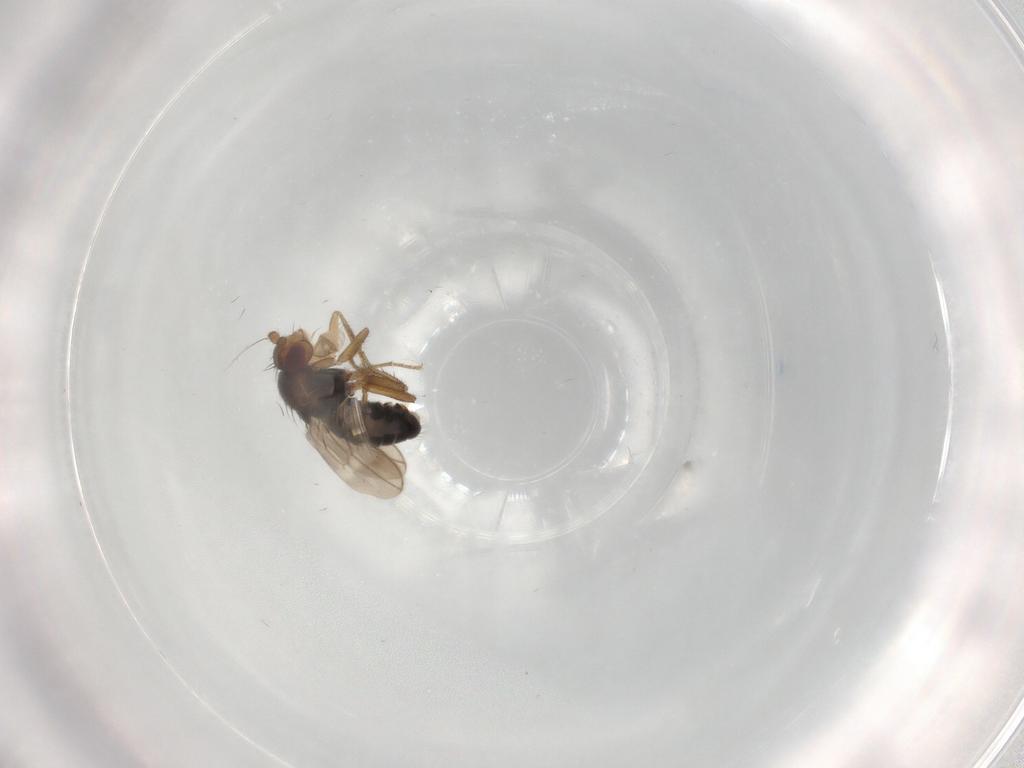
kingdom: Animalia
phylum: Arthropoda
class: Insecta
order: Diptera
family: Sphaeroceridae
